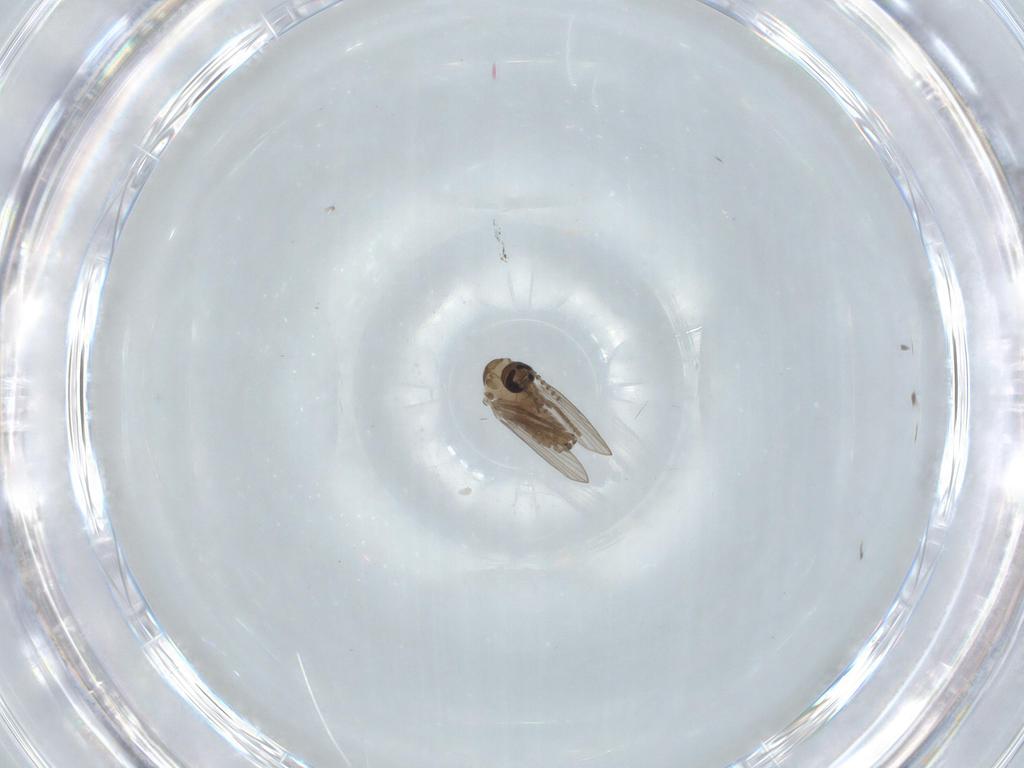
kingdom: Animalia
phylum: Arthropoda
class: Insecta
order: Diptera
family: Psychodidae
